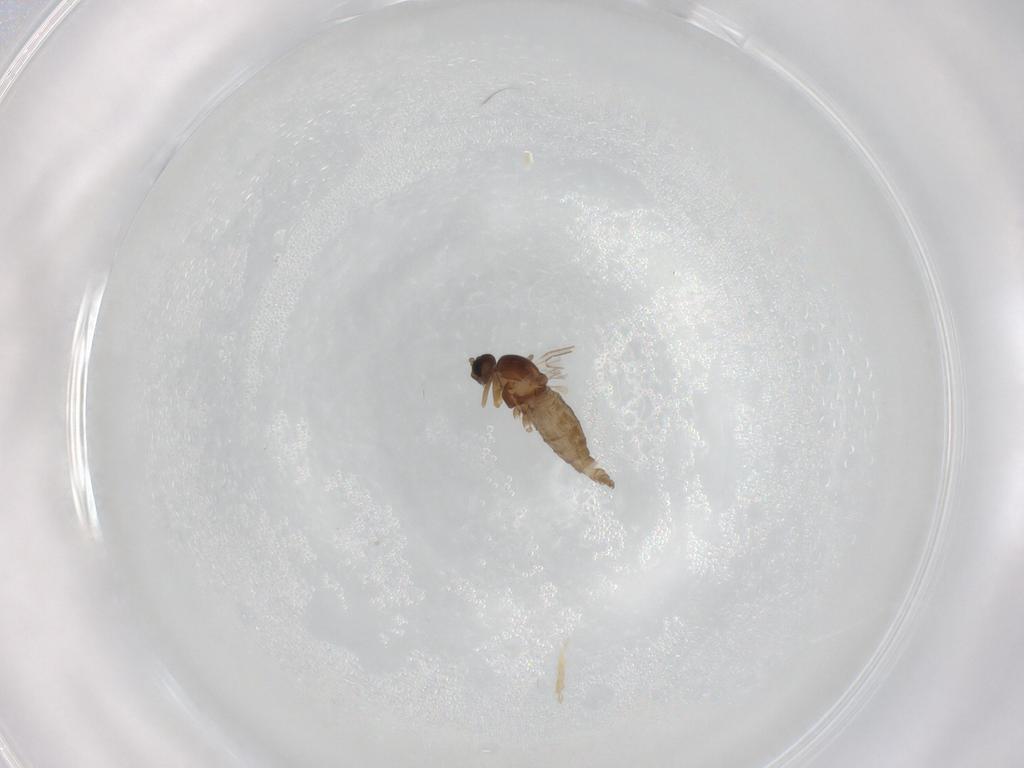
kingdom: Animalia
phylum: Arthropoda
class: Insecta
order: Diptera
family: Cecidomyiidae
